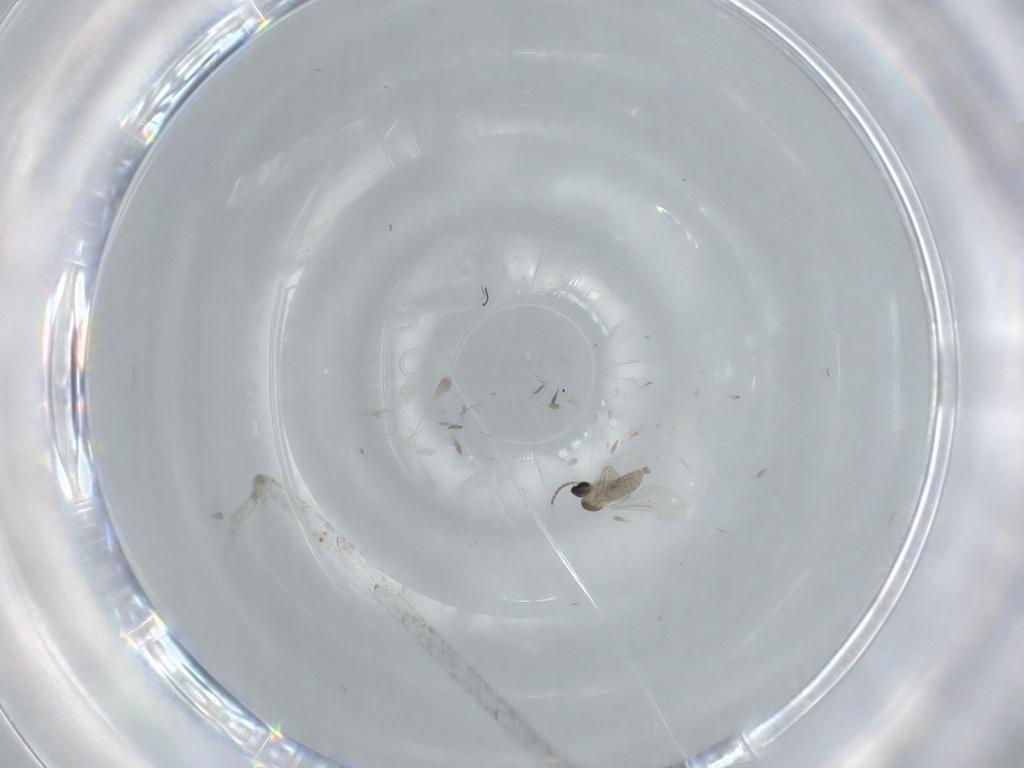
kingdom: Animalia
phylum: Arthropoda
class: Insecta
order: Diptera
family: Sciaridae
